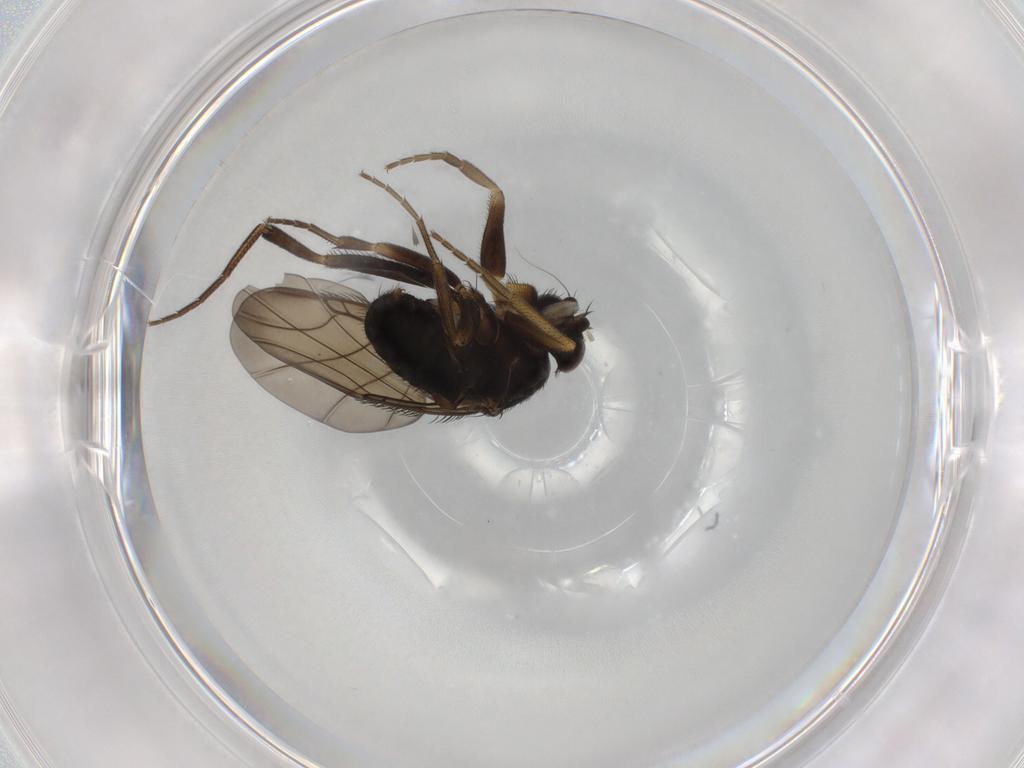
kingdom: Animalia
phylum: Arthropoda
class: Insecta
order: Diptera
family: Phoridae
